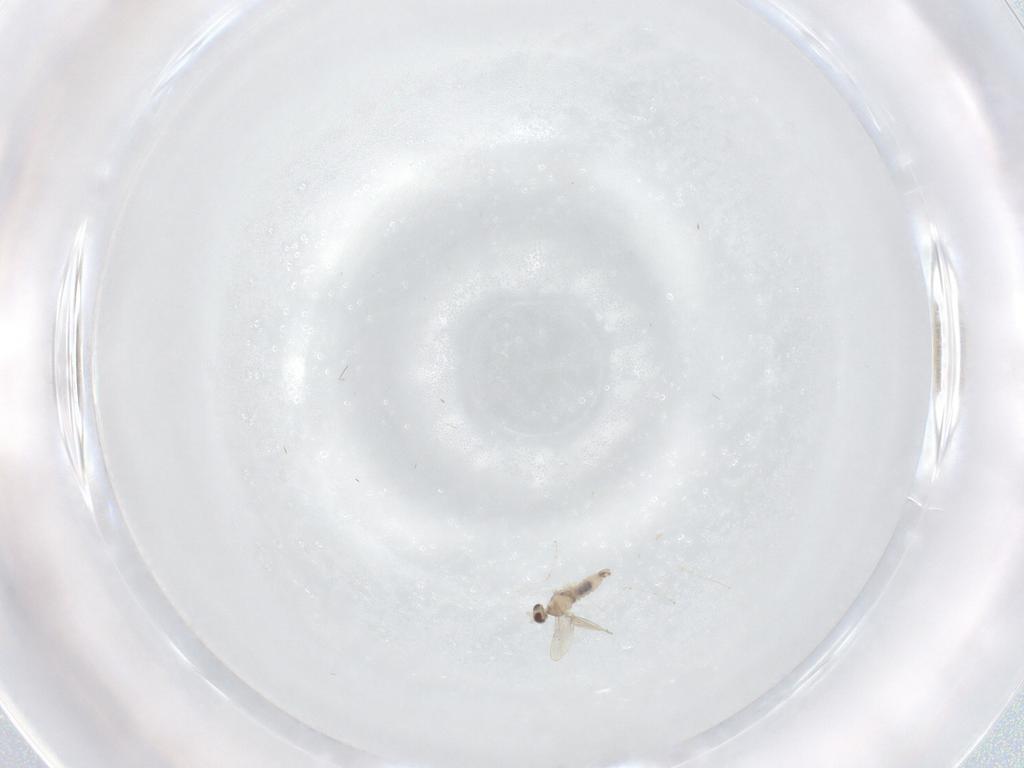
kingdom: Animalia
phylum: Arthropoda
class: Insecta
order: Diptera
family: Cecidomyiidae
